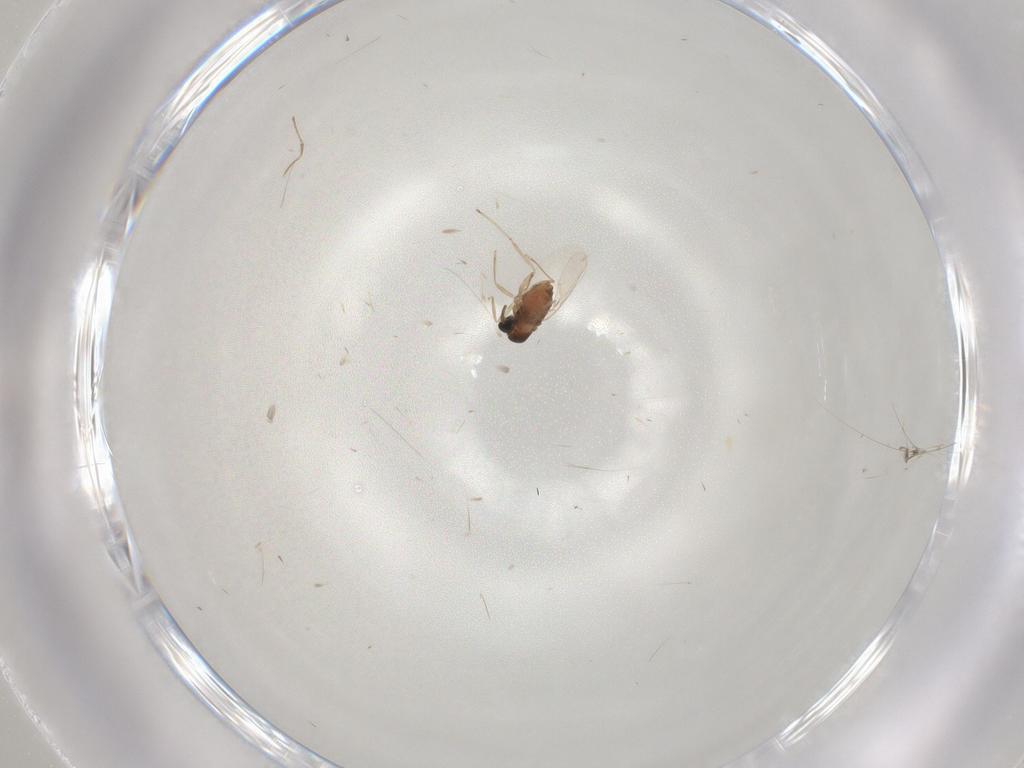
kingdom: Animalia
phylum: Arthropoda
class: Insecta
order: Diptera
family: Cecidomyiidae
